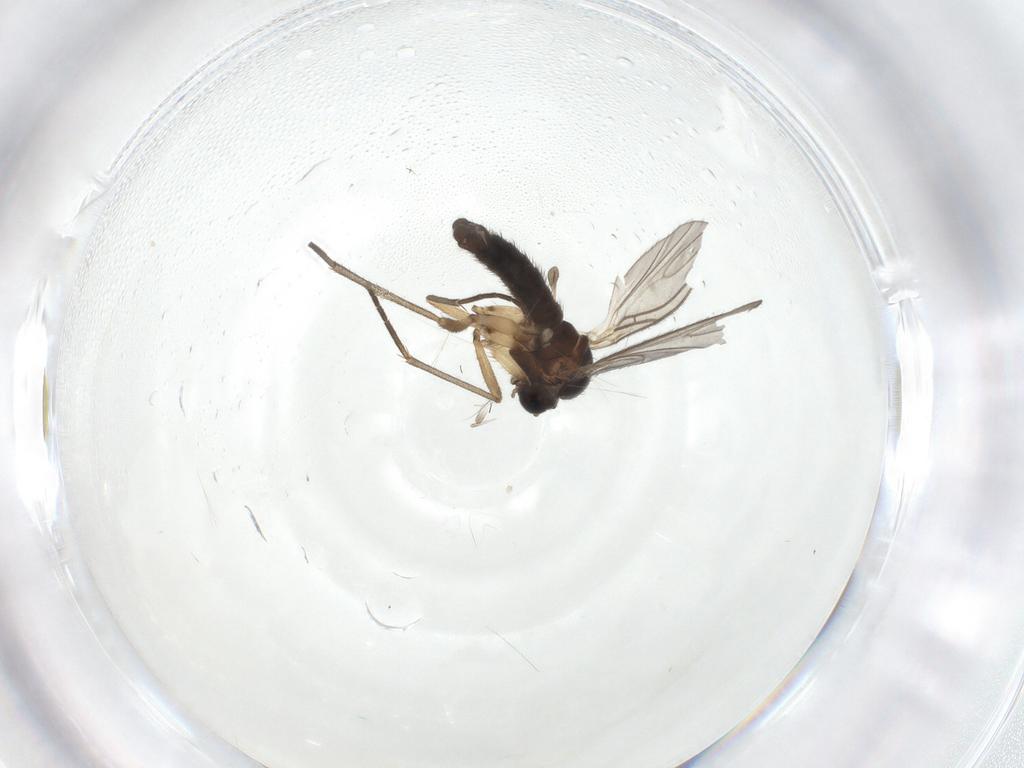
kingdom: Animalia
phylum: Arthropoda
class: Insecta
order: Diptera
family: Sciaridae
